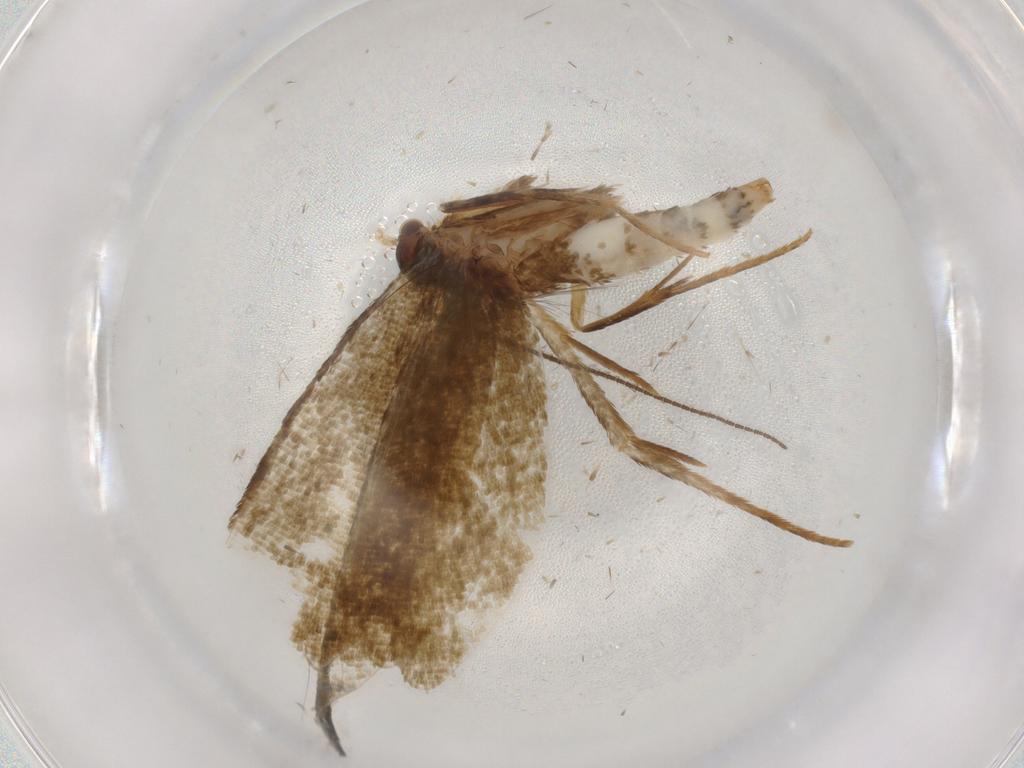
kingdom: Animalia
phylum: Arthropoda
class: Insecta
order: Lepidoptera
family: Tineidae
